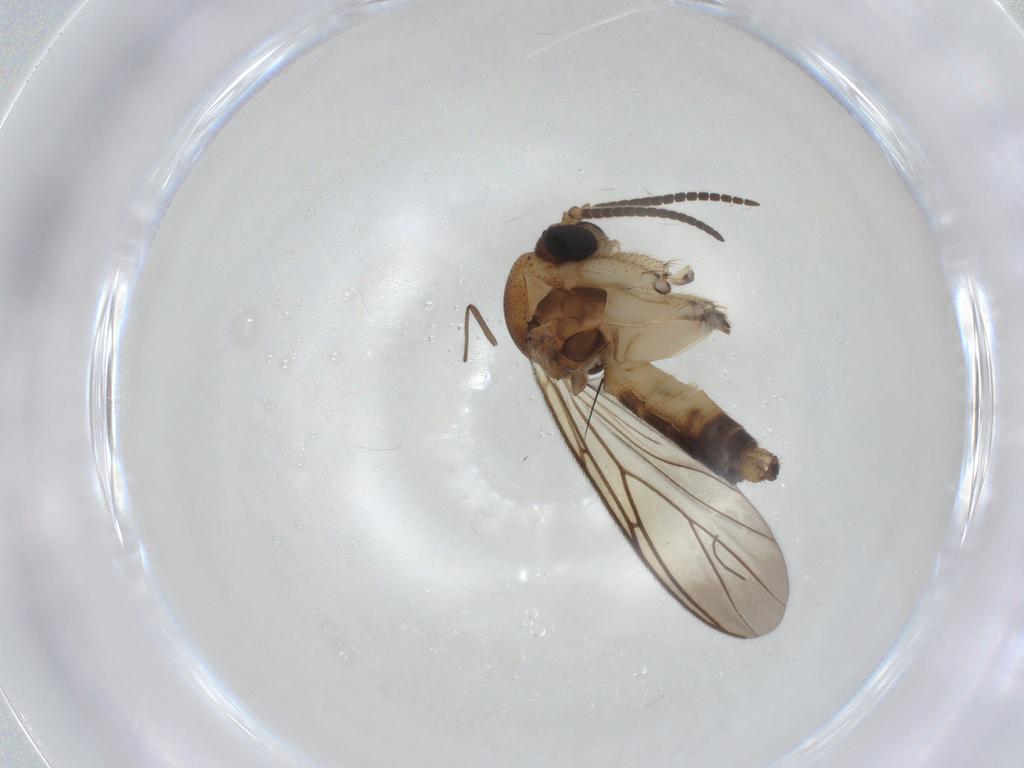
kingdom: Animalia
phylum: Arthropoda
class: Insecta
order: Diptera
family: Mycetophilidae
